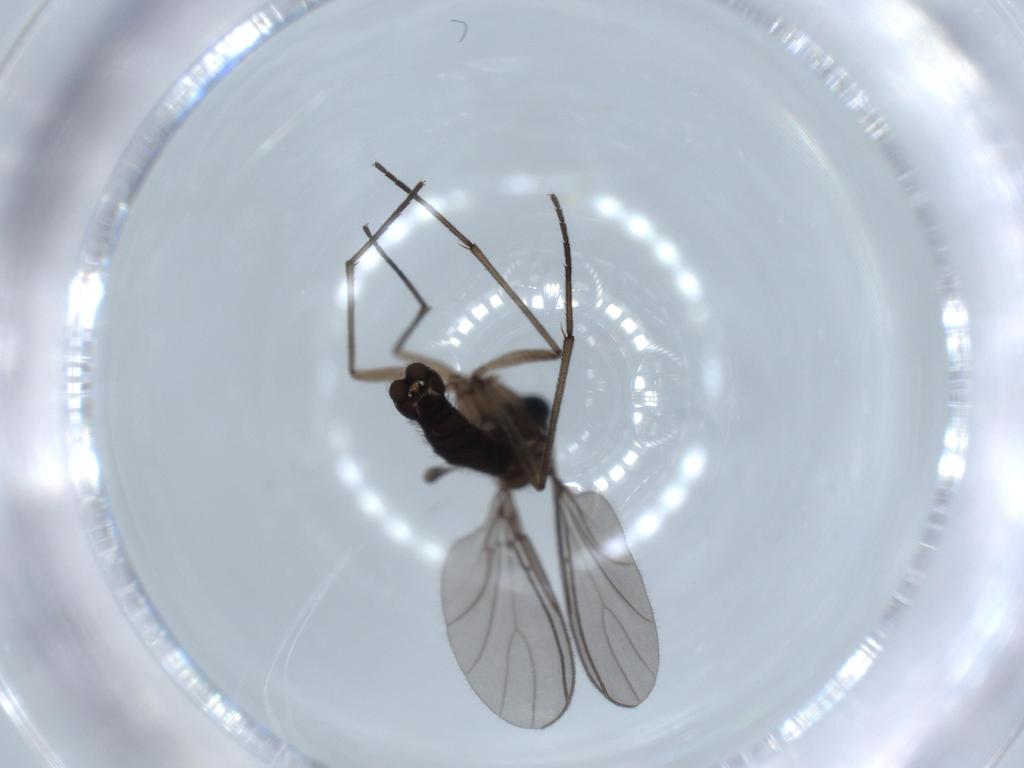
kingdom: Animalia
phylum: Arthropoda
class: Insecta
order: Diptera
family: Sciaridae
